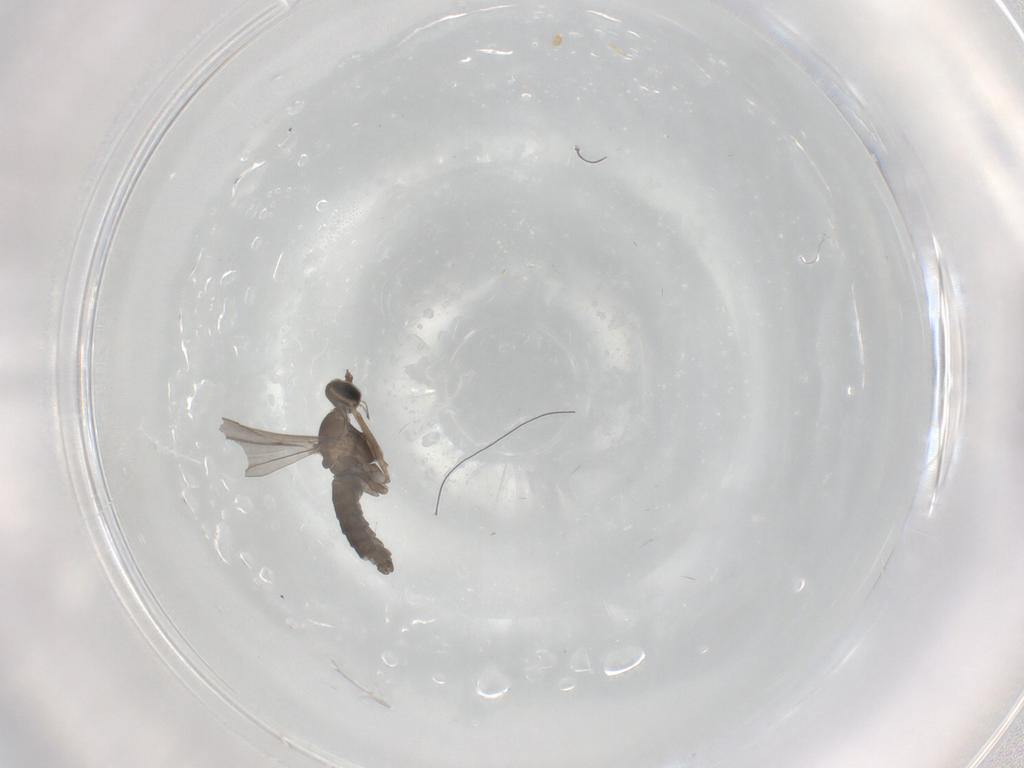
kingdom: Animalia
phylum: Arthropoda
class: Insecta
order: Diptera
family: Cecidomyiidae
